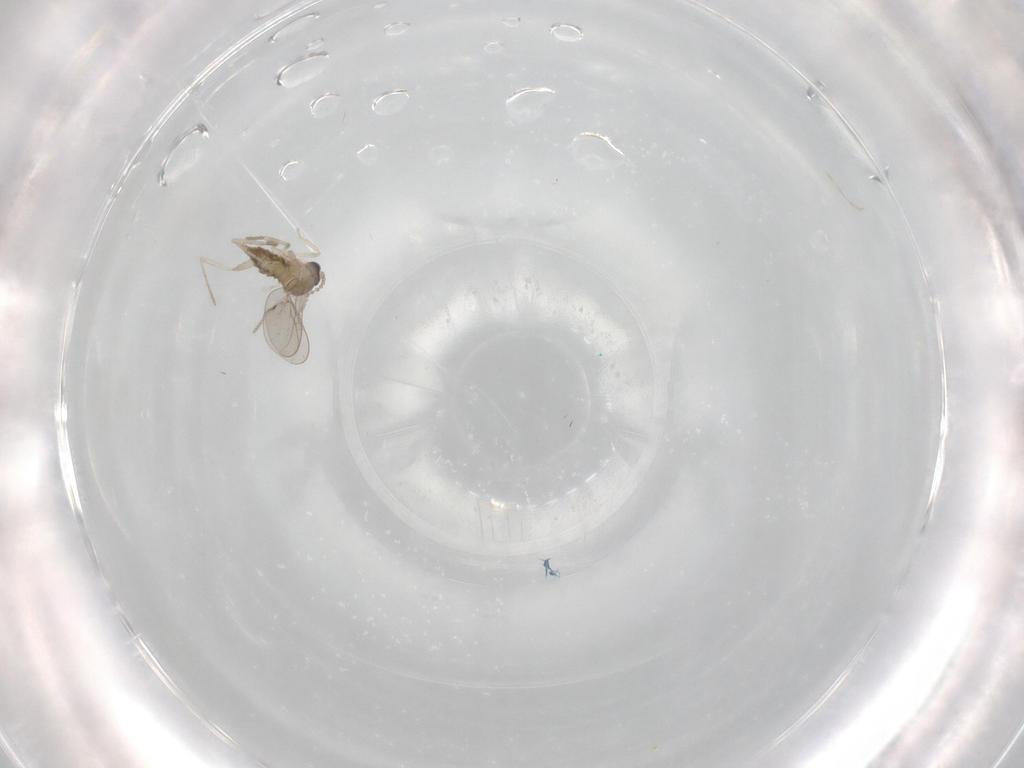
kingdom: Animalia
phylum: Arthropoda
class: Insecta
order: Diptera
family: Cecidomyiidae
